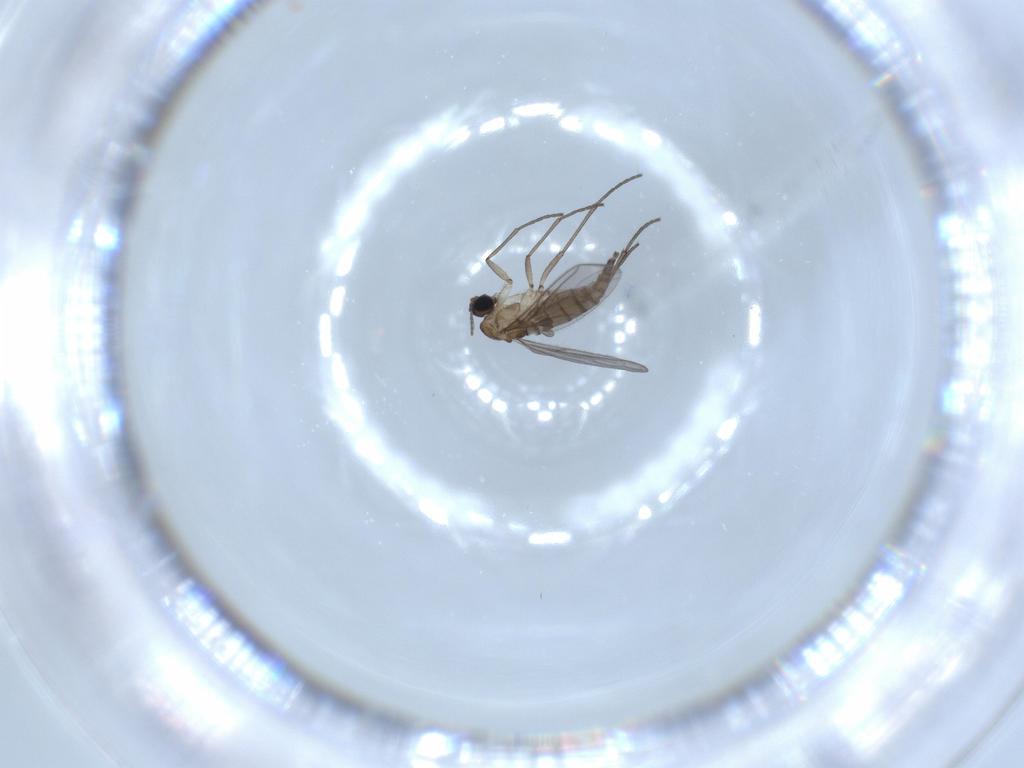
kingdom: Animalia
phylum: Arthropoda
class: Insecta
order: Diptera
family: Sciaridae
